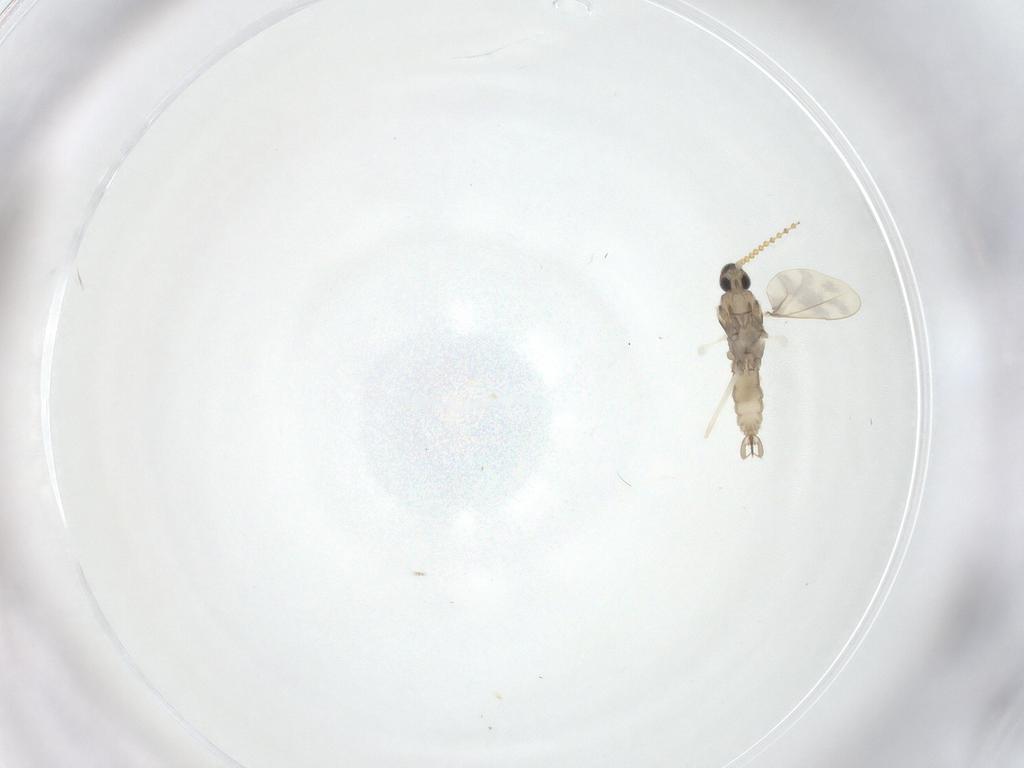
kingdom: Animalia
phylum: Arthropoda
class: Insecta
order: Diptera
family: Cecidomyiidae
